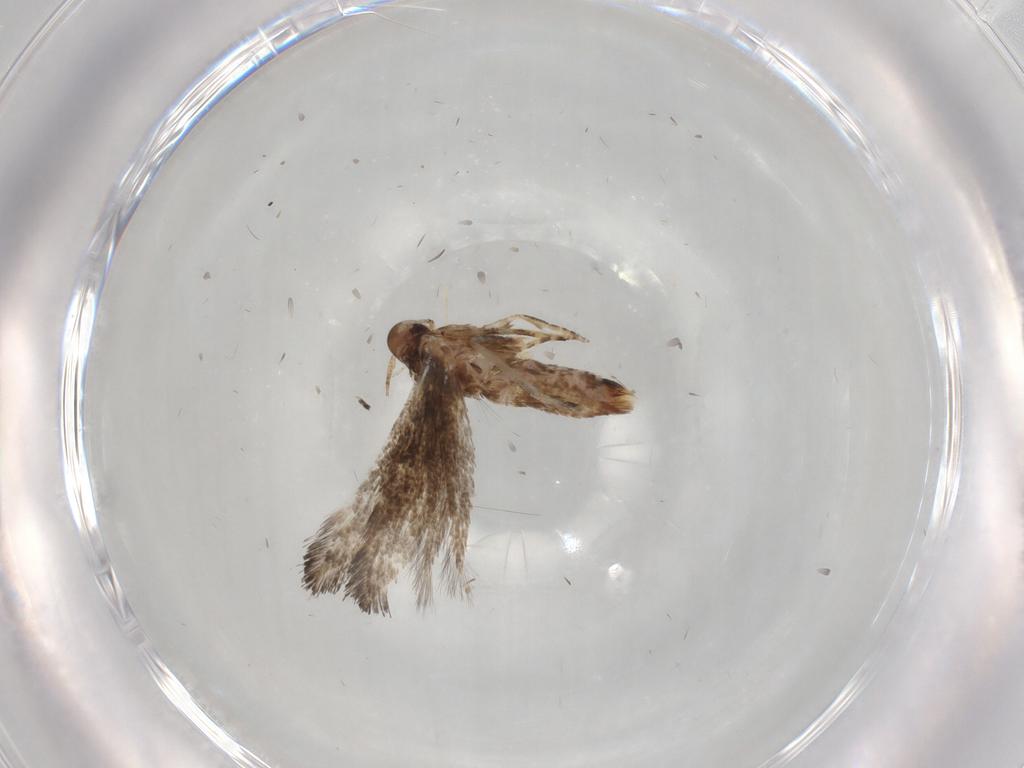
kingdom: Animalia
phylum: Arthropoda
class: Insecta
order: Lepidoptera
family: Erebidae
